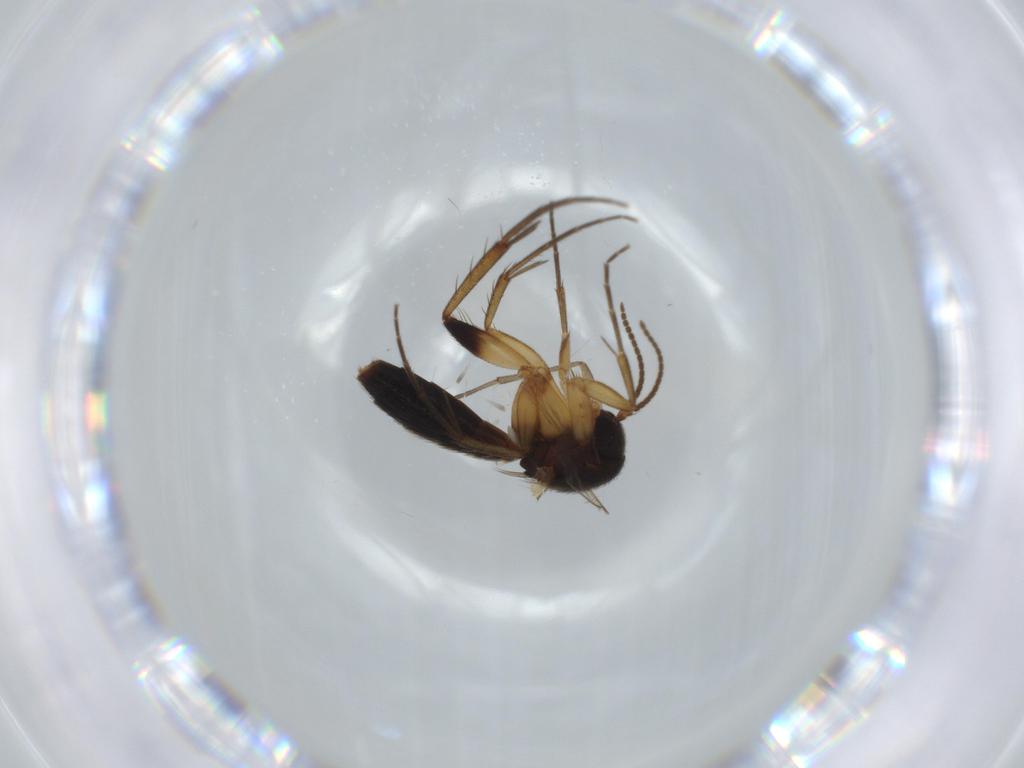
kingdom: Animalia
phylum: Arthropoda
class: Insecta
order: Diptera
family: Mycetophilidae
